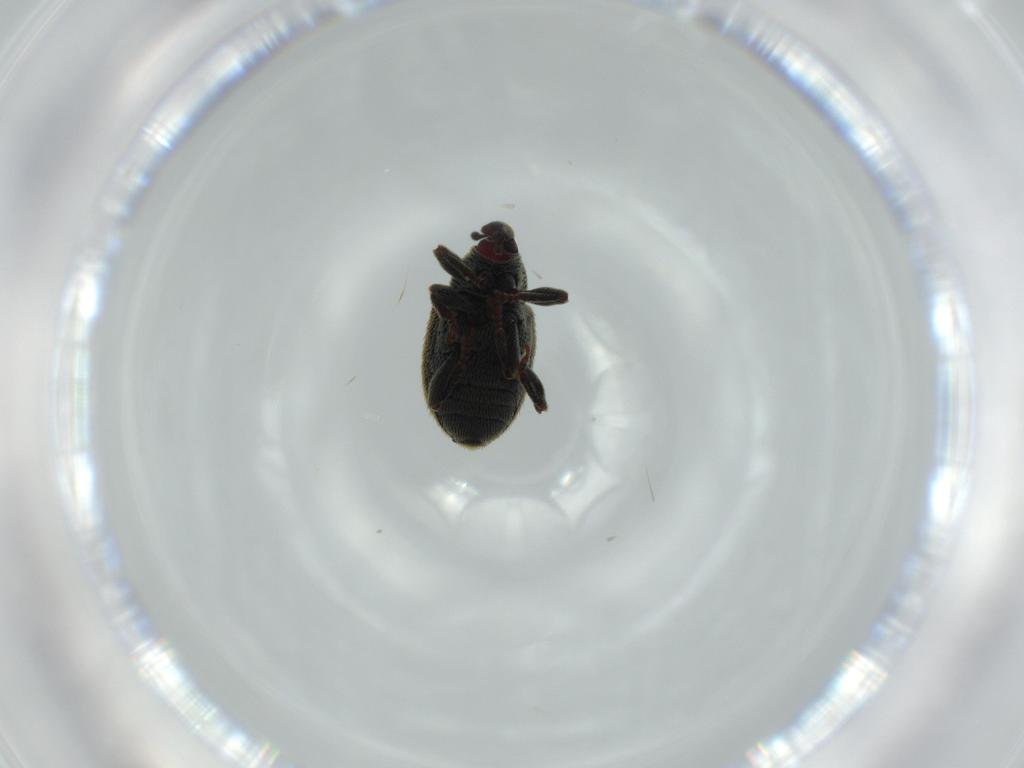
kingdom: Animalia
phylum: Arthropoda
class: Insecta
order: Coleoptera
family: Curculionidae
